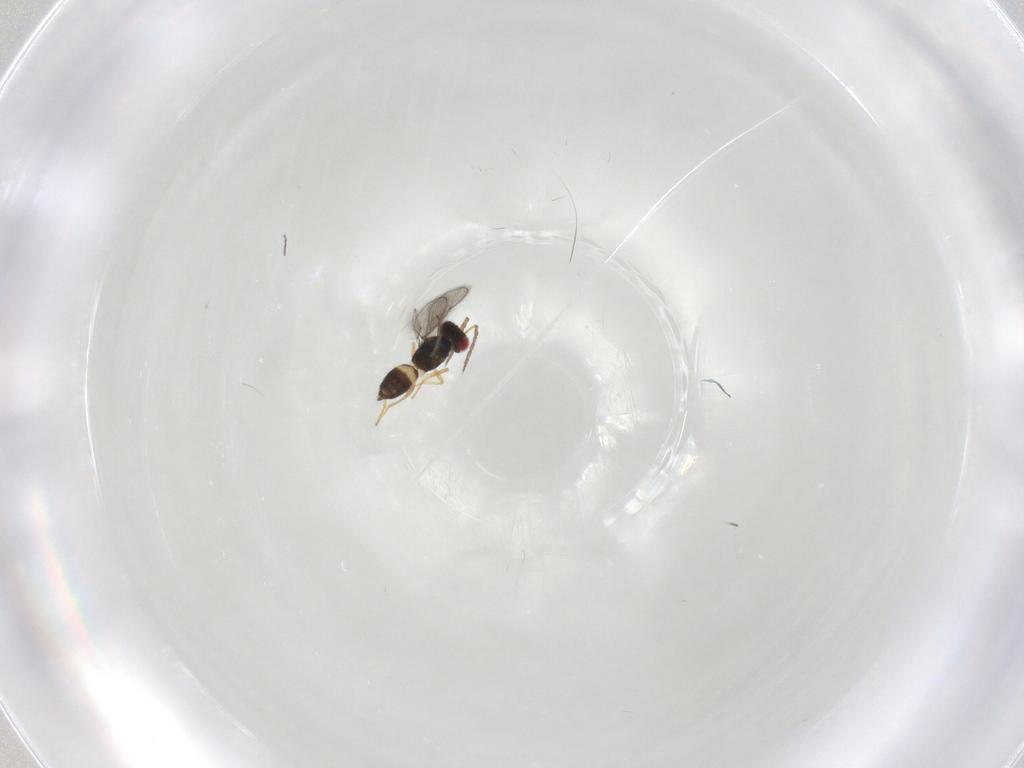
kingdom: Animalia
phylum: Arthropoda
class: Insecta
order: Hymenoptera
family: Eulophidae
